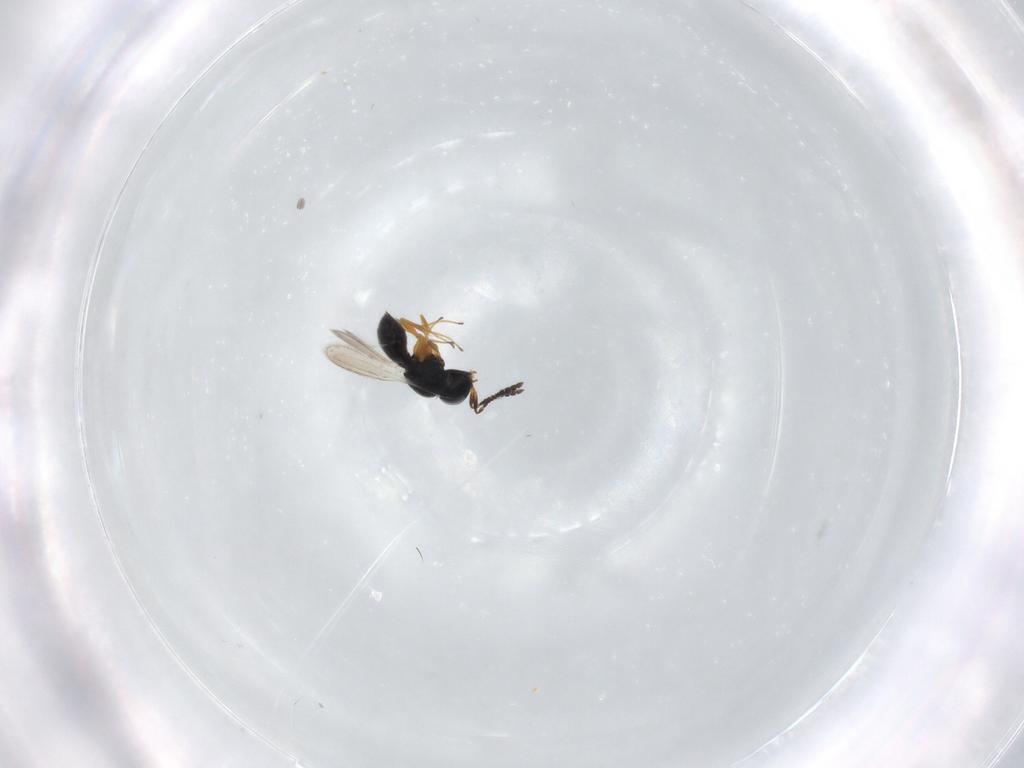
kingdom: Animalia
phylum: Arthropoda
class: Insecta
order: Hymenoptera
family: Scelionidae
